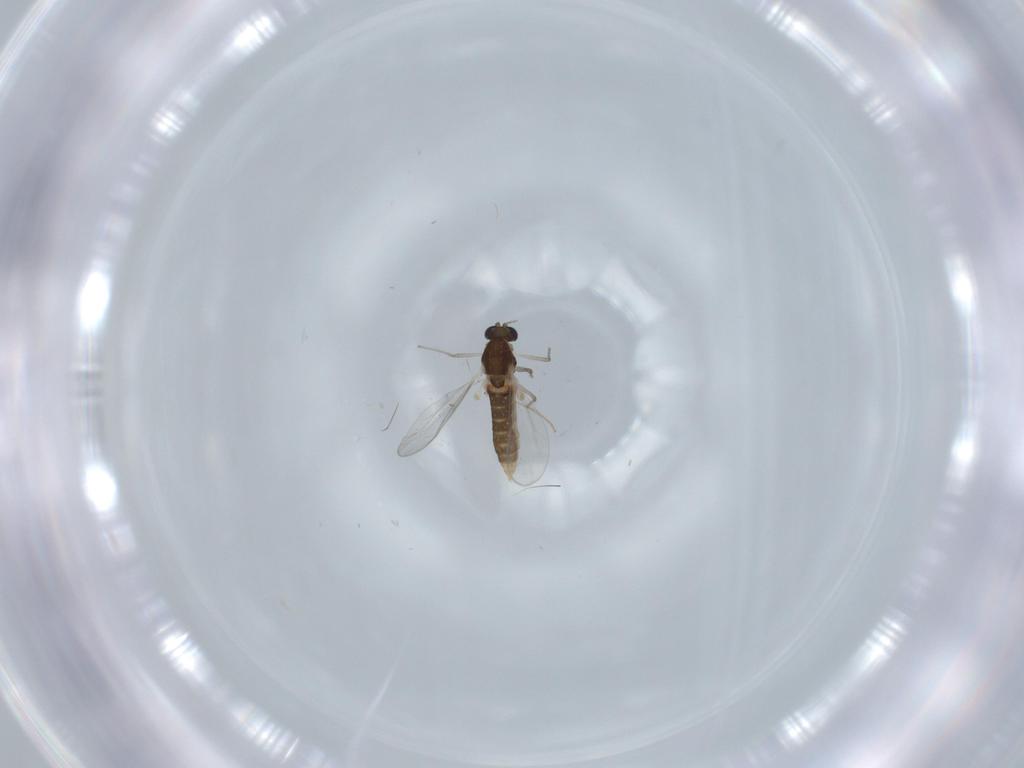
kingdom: Animalia
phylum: Arthropoda
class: Insecta
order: Diptera
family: Chironomidae
